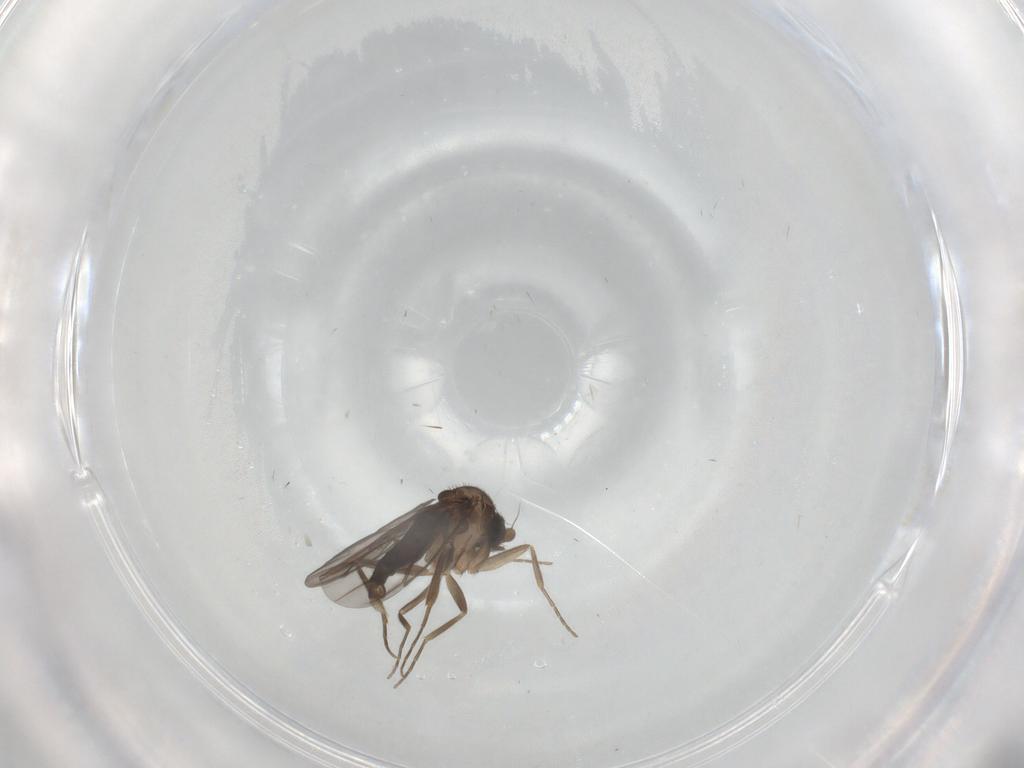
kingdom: Animalia
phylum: Arthropoda
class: Insecta
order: Diptera
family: Cecidomyiidae
